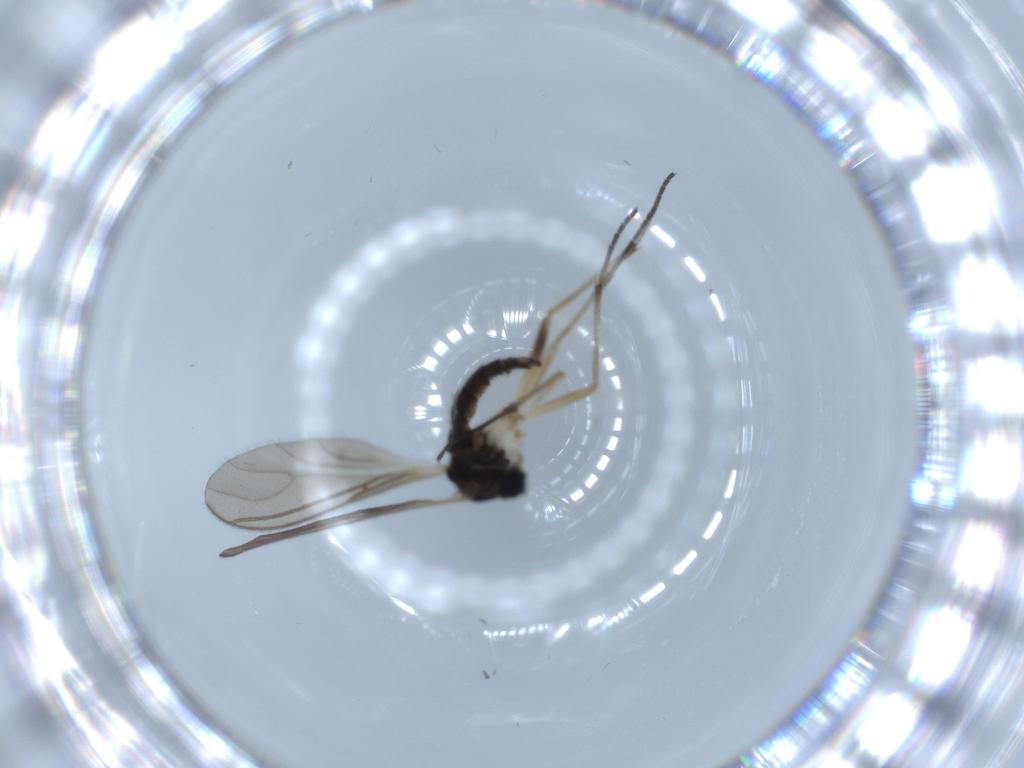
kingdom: Animalia
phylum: Arthropoda
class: Insecta
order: Diptera
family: Sciaridae
